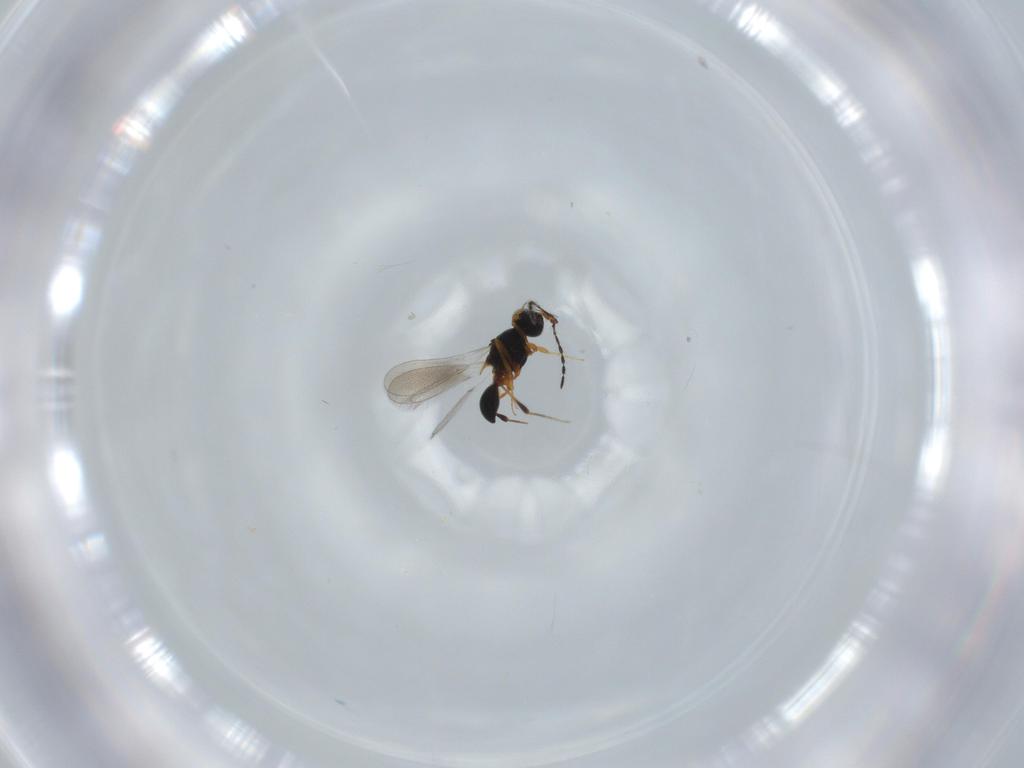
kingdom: Animalia
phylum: Arthropoda
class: Insecta
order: Hymenoptera
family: Platygastridae
